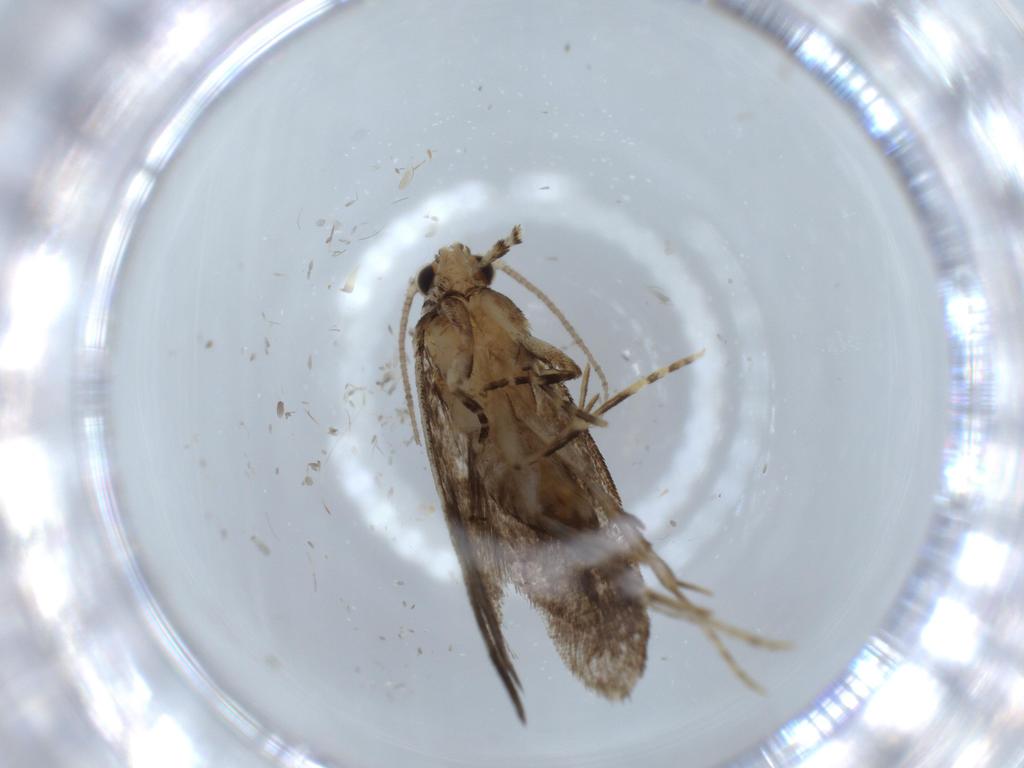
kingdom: Animalia
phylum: Arthropoda
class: Insecta
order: Lepidoptera
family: Tineidae
